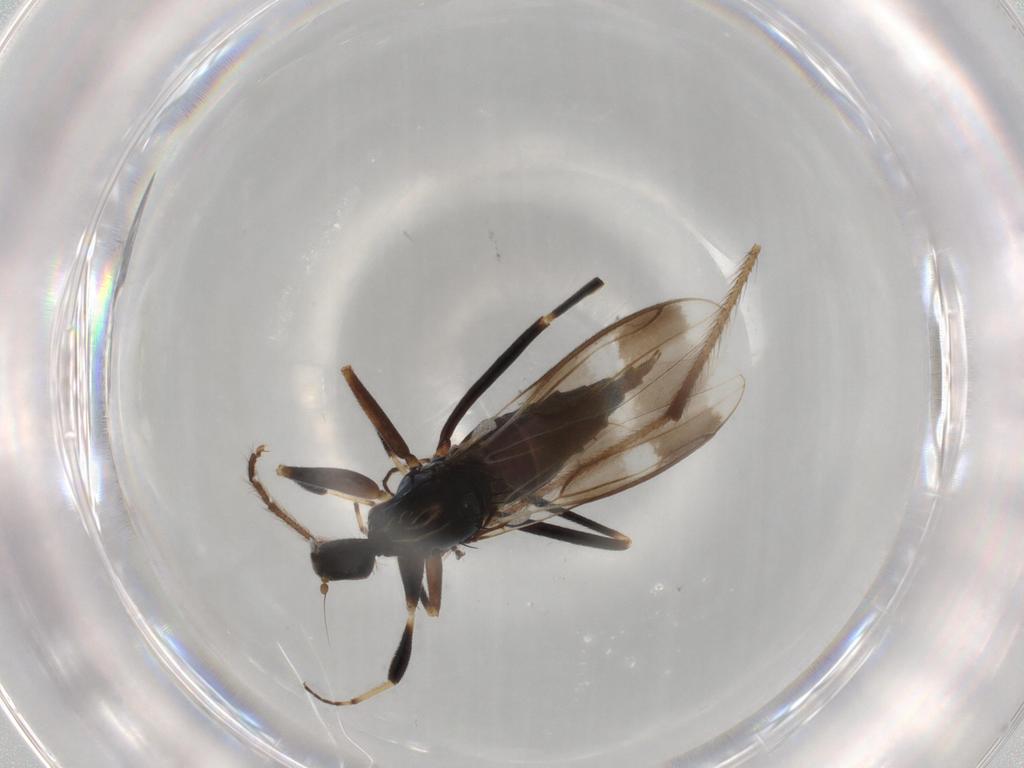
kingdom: Animalia
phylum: Arthropoda
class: Insecta
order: Diptera
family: Hybotidae
